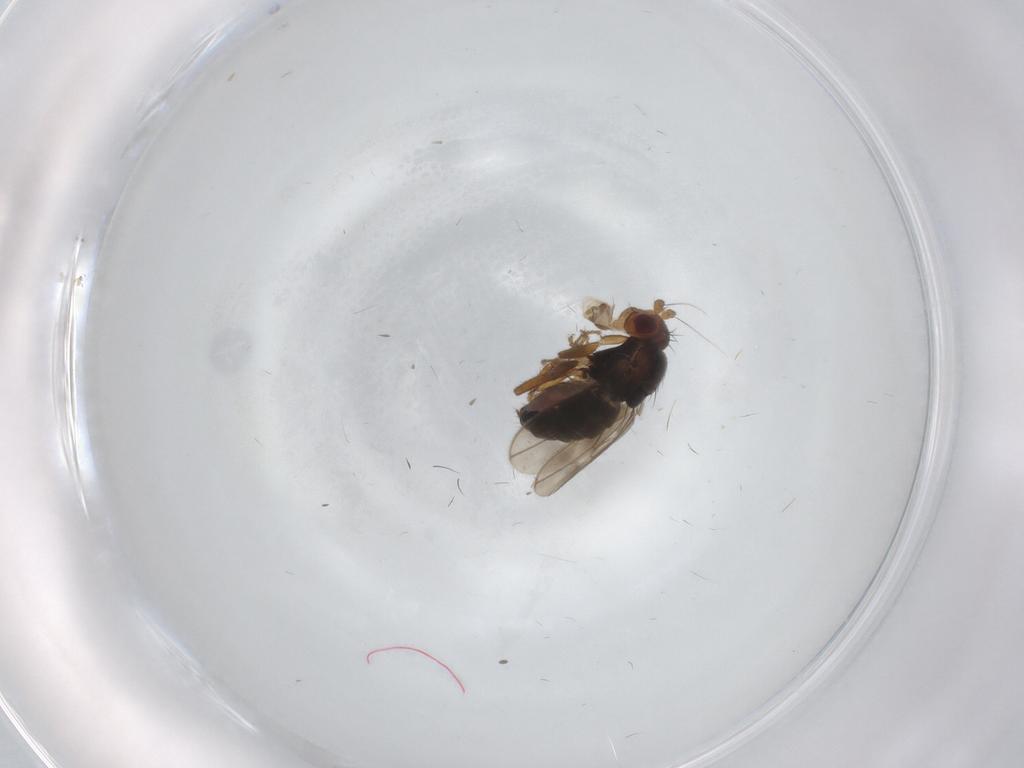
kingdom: Animalia
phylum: Arthropoda
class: Insecta
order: Diptera
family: Sphaeroceridae
